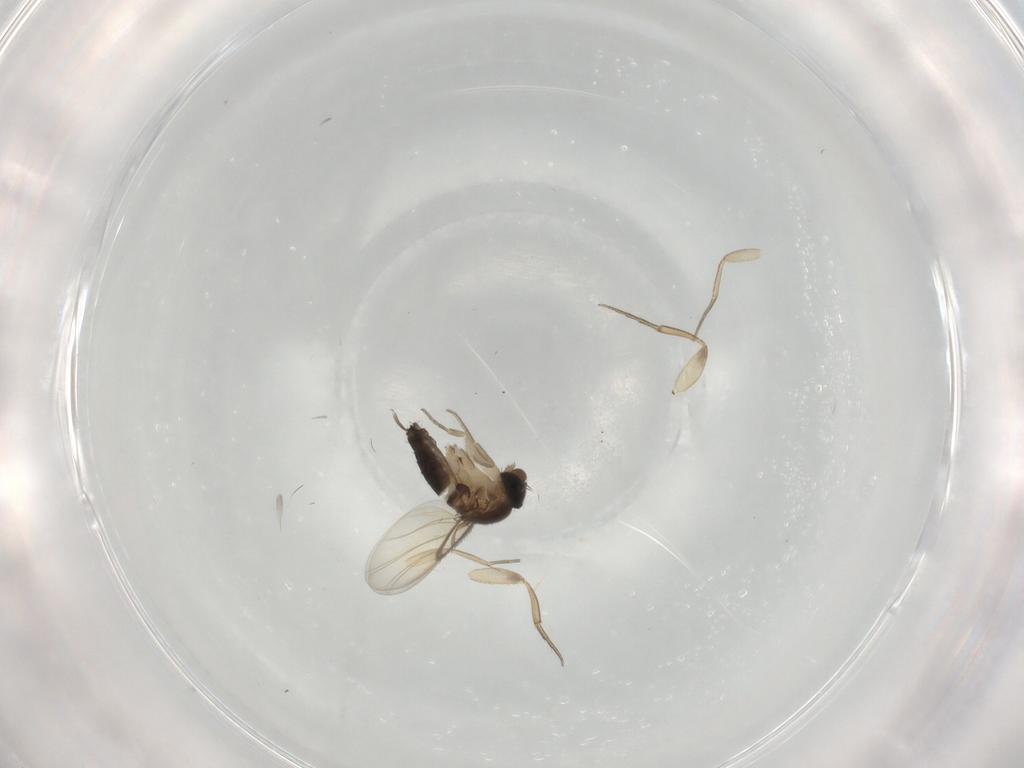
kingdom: Animalia
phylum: Arthropoda
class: Insecta
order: Diptera
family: Phoridae
